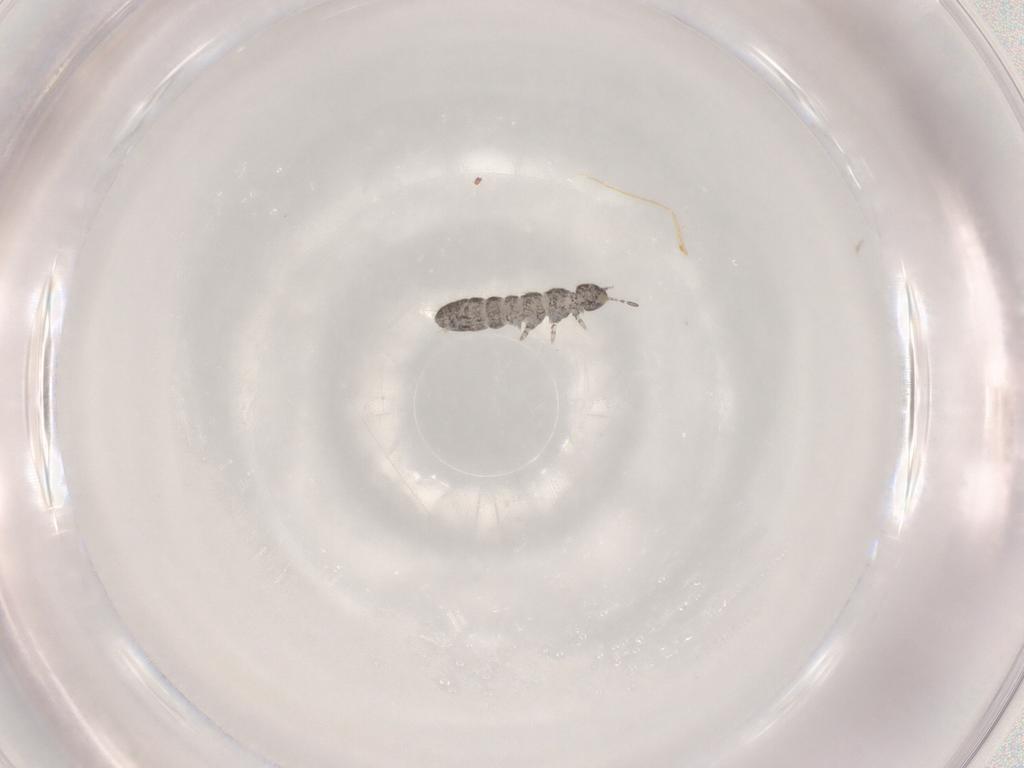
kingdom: Animalia
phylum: Arthropoda
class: Collembola
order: Entomobryomorpha
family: Isotomidae
